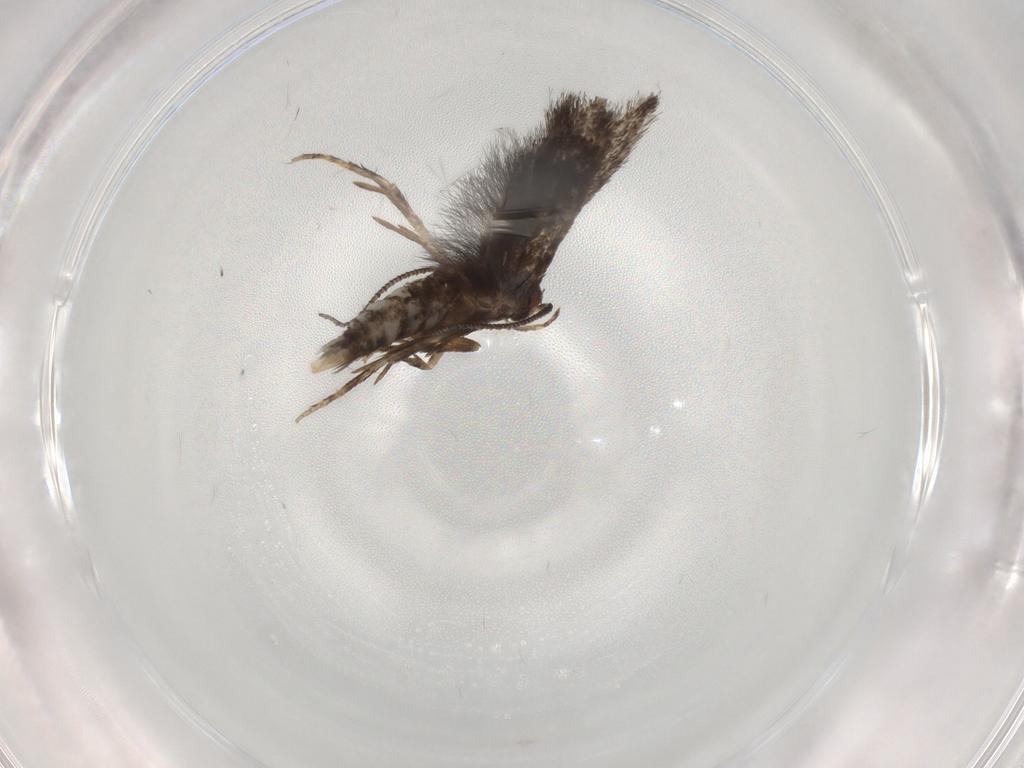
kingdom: Animalia
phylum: Arthropoda
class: Insecta
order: Lepidoptera
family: Elachistidae
